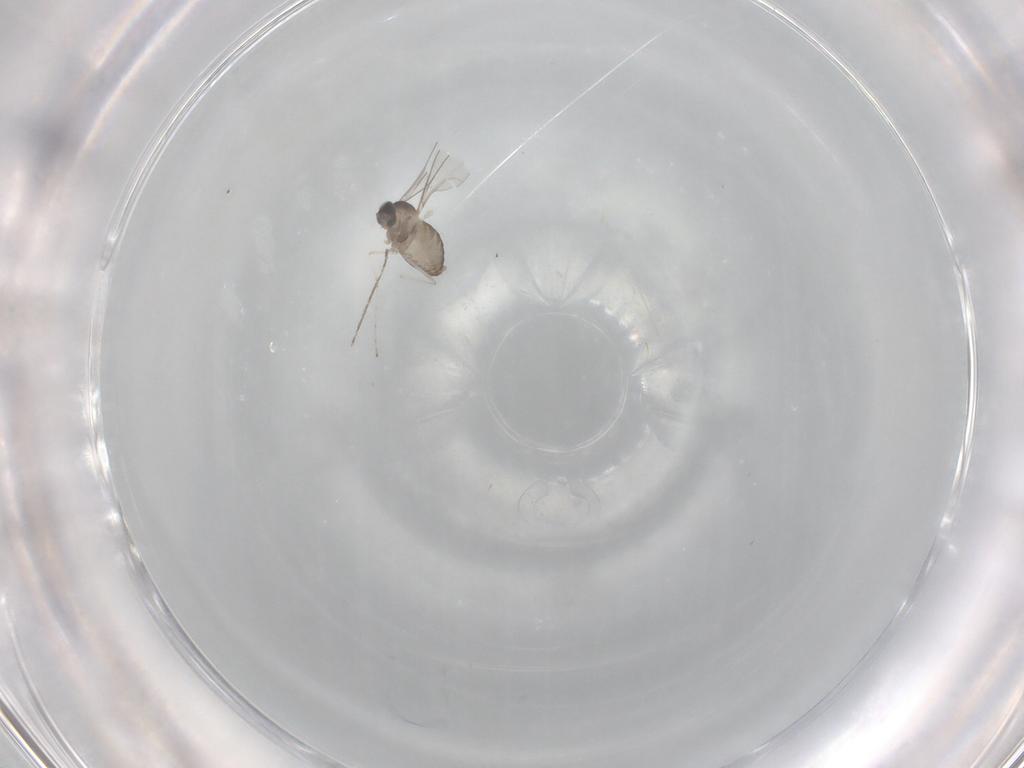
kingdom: Animalia
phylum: Arthropoda
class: Insecta
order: Diptera
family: Cecidomyiidae
